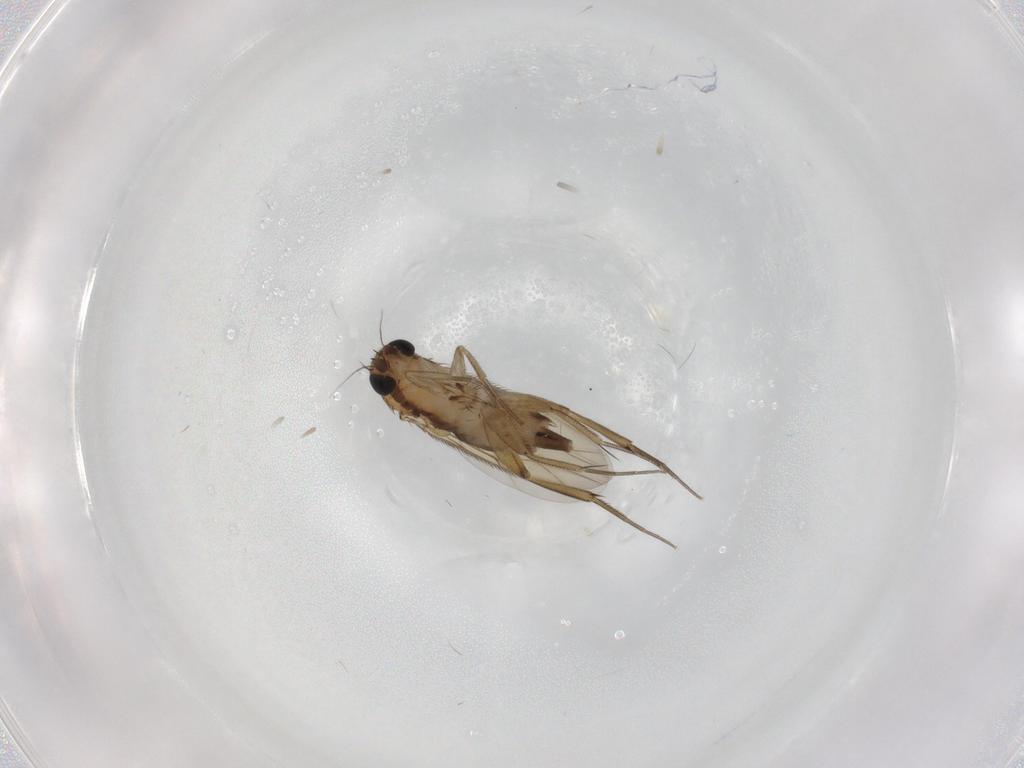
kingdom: Animalia
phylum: Arthropoda
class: Insecta
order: Diptera
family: Phoridae
